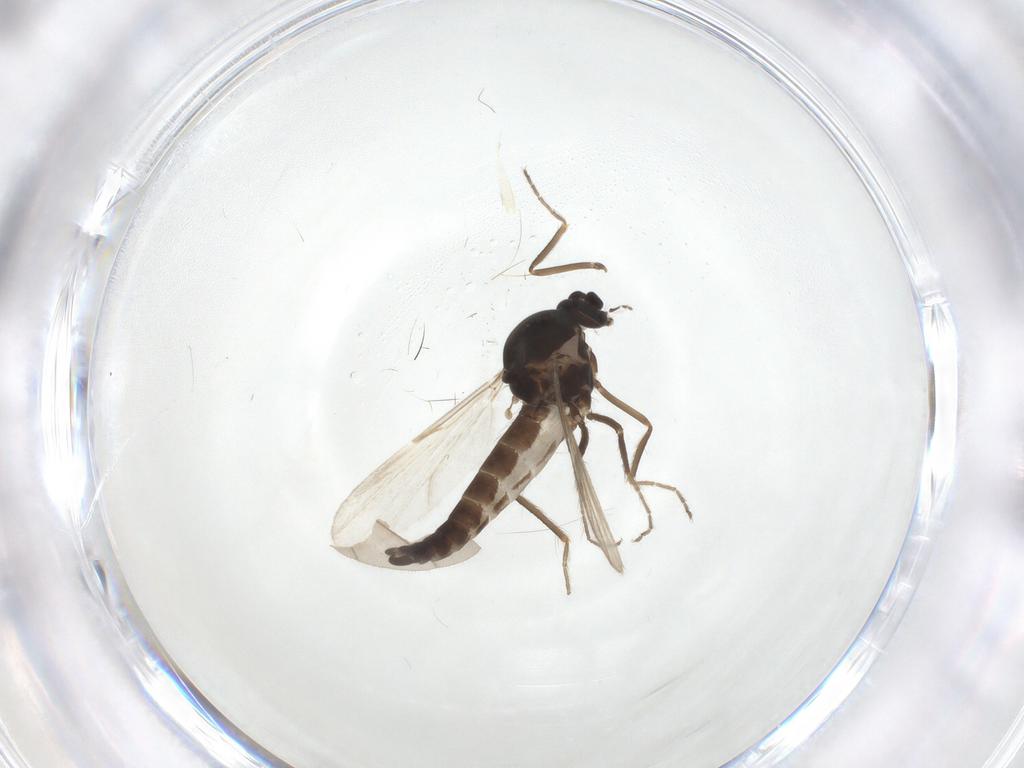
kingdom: Animalia
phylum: Arthropoda
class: Insecta
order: Diptera
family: Ceratopogonidae
